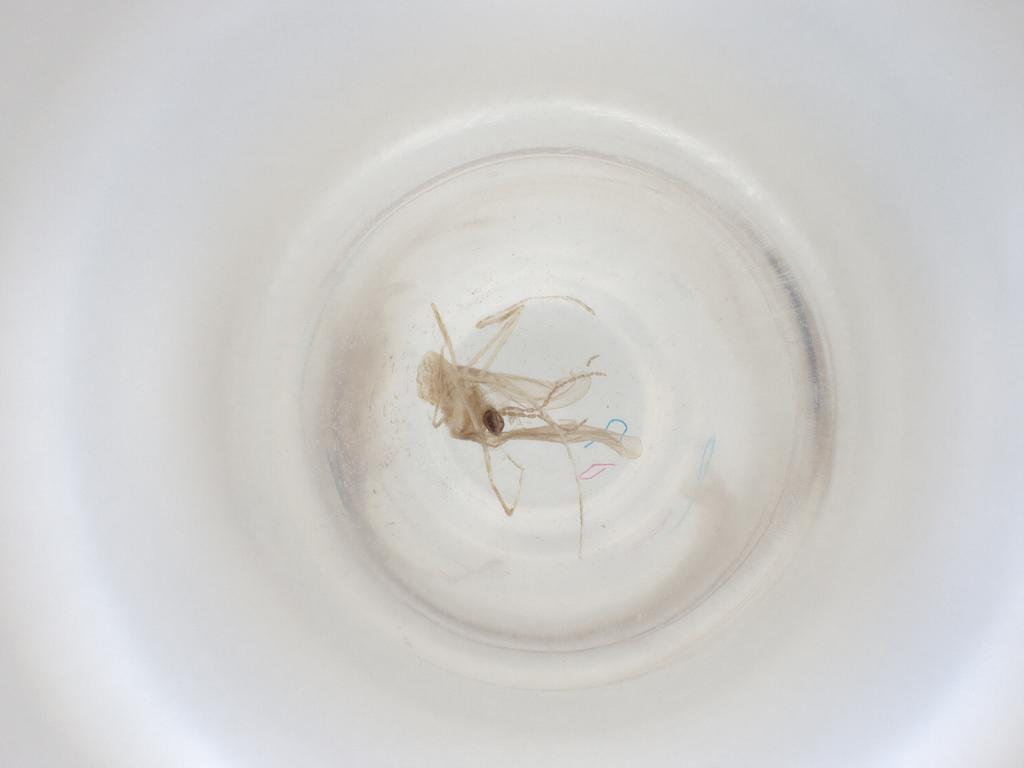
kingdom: Animalia
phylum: Arthropoda
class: Insecta
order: Diptera
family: Cecidomyiidae
